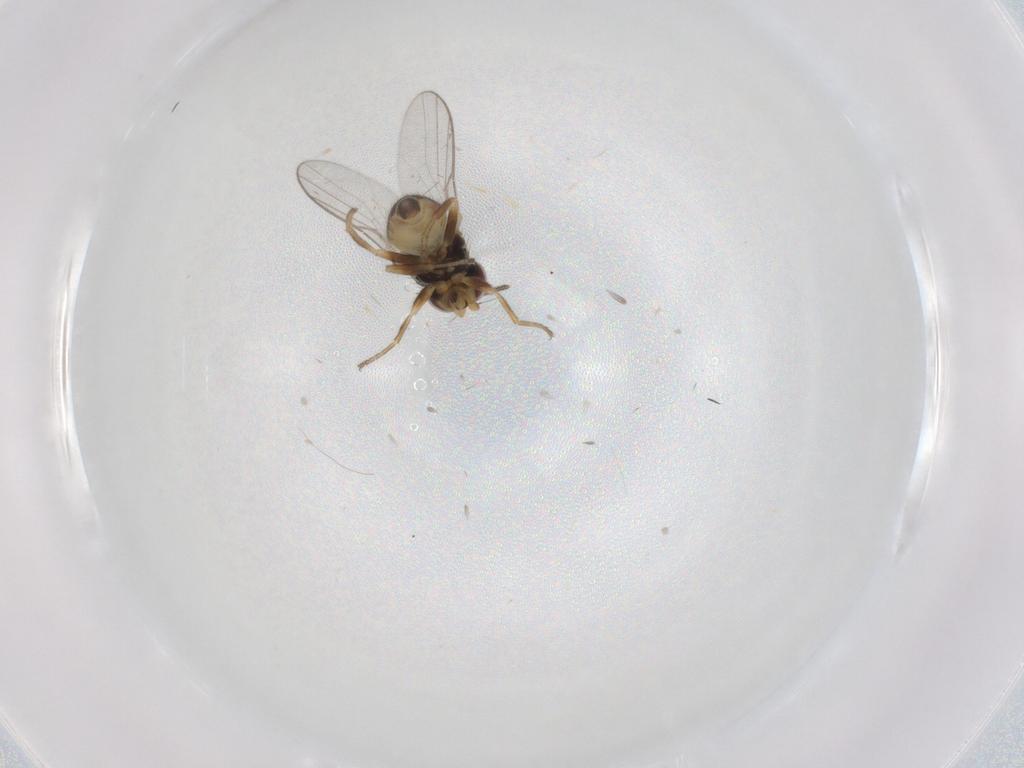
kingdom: Animalia
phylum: Arthropoda
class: Insecta
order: Diptera
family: Chloropidae
